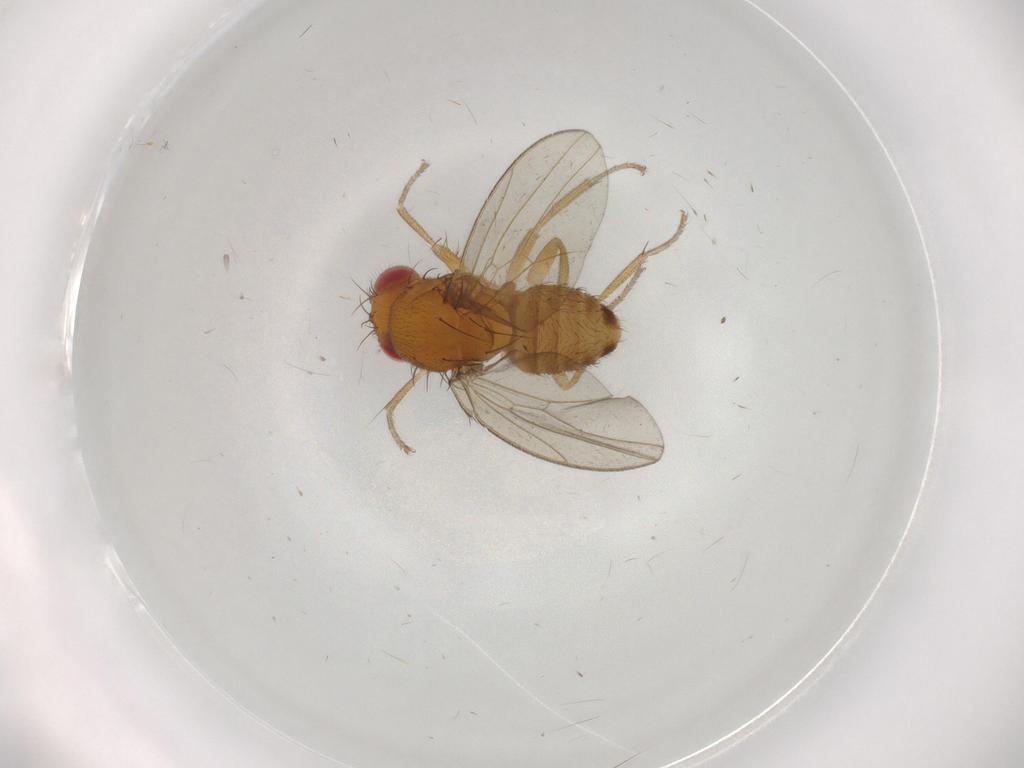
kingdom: Animalia
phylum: Arthropoda
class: Insecta
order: Diptera
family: Drosophilidae
